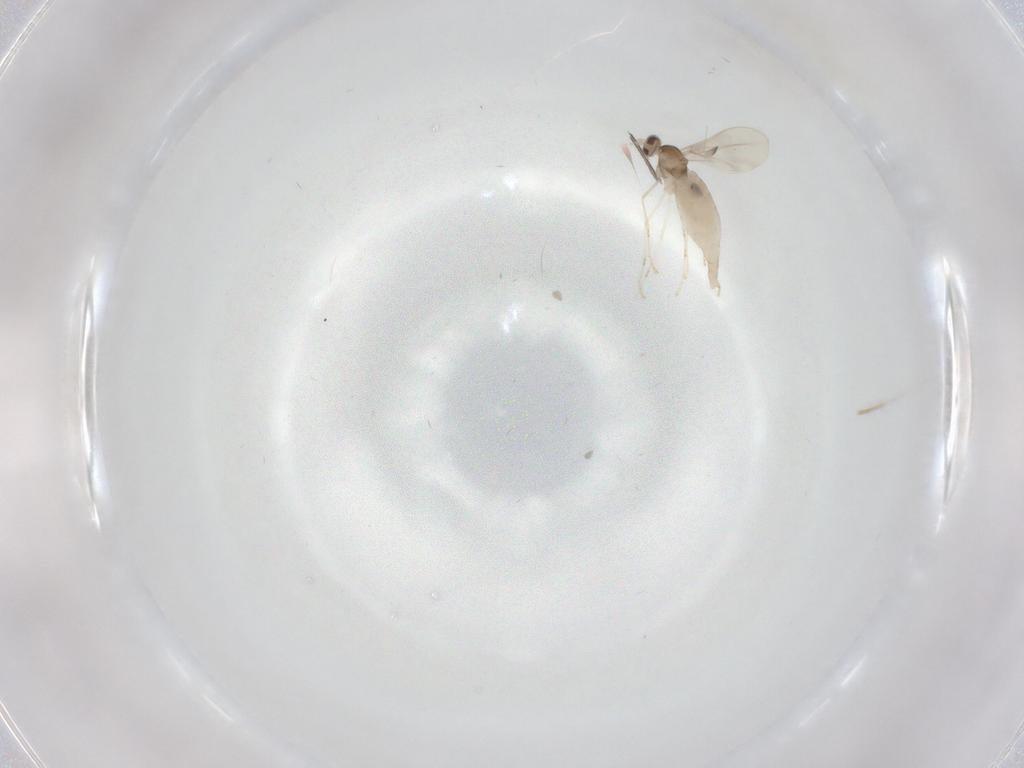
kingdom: Animalia
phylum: Arthropoda
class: Insecta
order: Diptera
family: Cecidomyiidae
